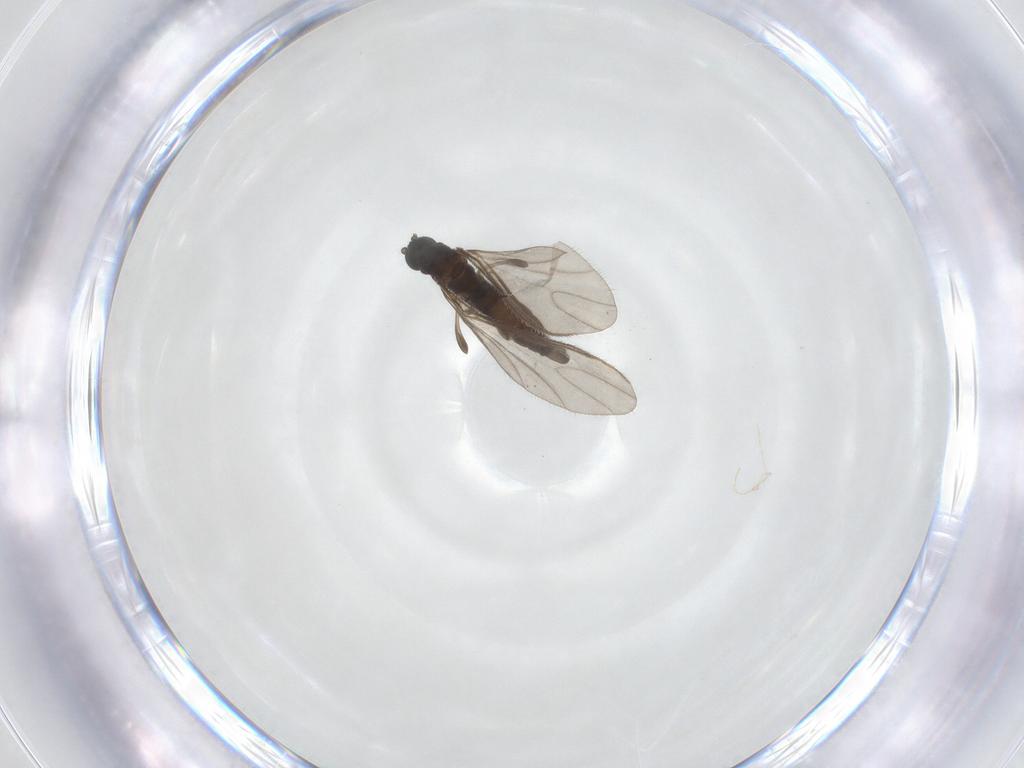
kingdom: Animalia
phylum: Arthropoda
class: Insecta
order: Diptera
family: Sciaridae
